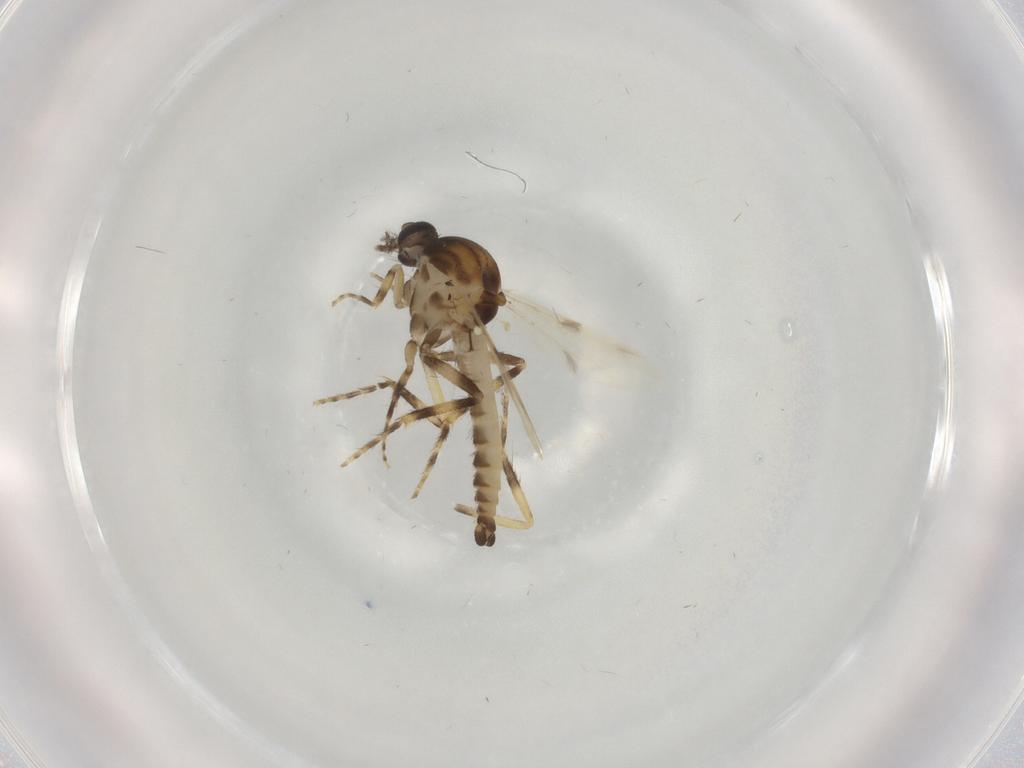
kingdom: Animalia
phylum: Arthropoda
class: Insecta
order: Diptera
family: Ceratopogonidae
